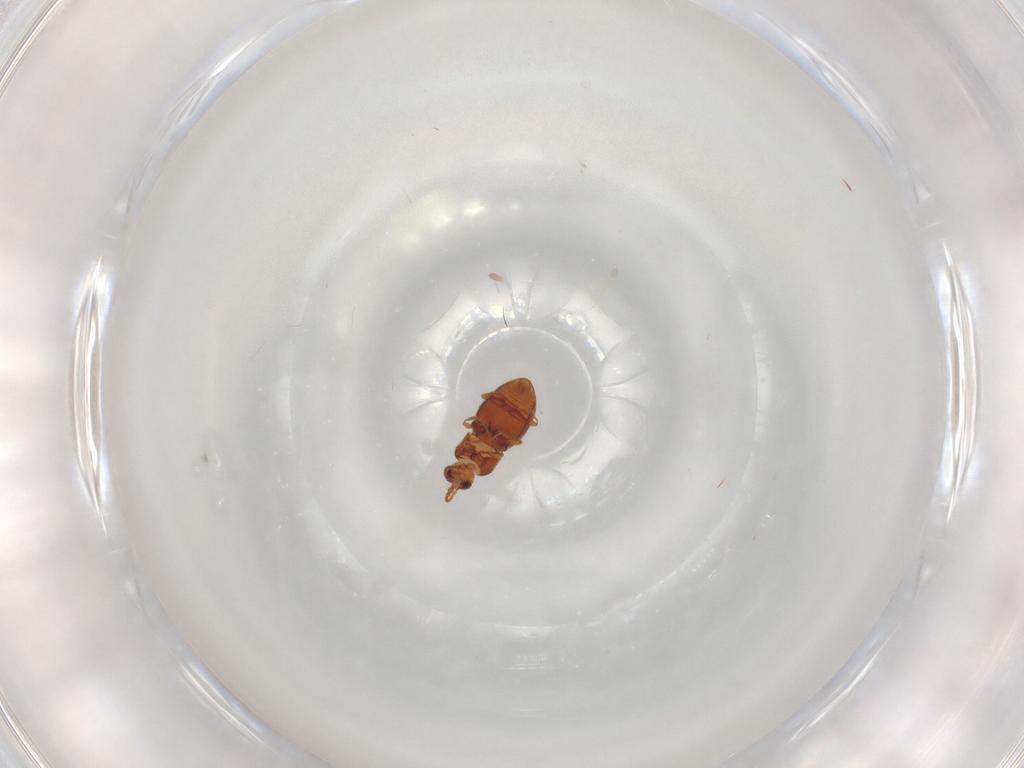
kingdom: Animalia
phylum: Arthropoda
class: Insecta
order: Coleoptera
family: Staphylinidae
